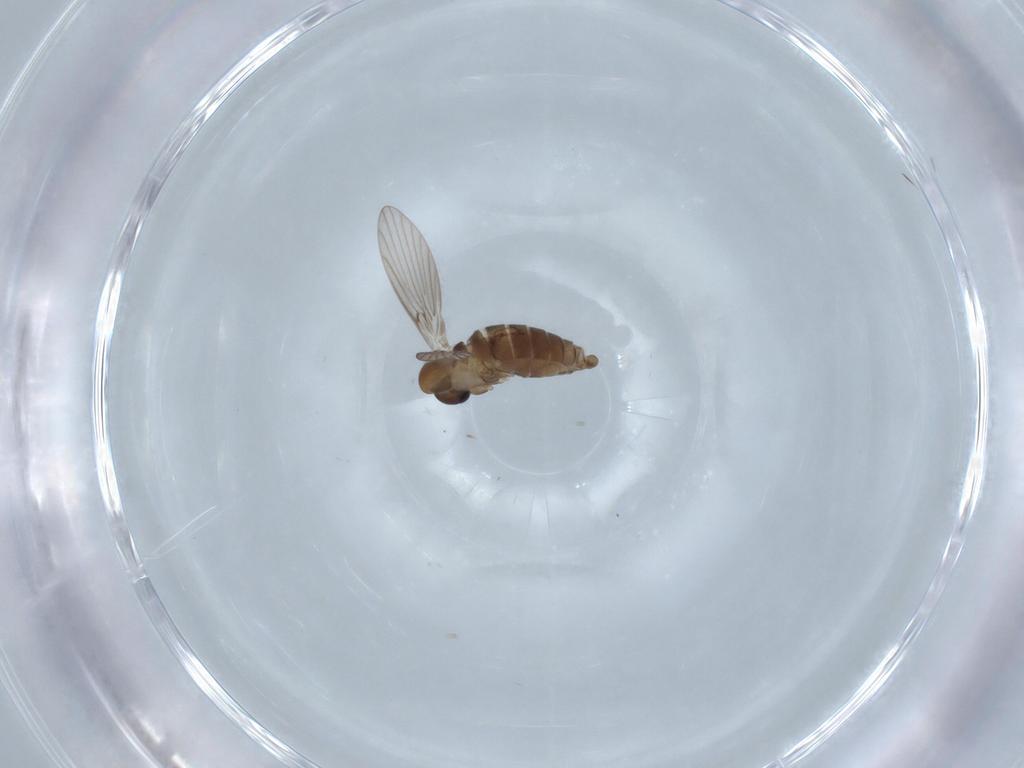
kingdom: Animalia
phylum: Arthropoda
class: Insecta
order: Diptera
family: Psychodidae
